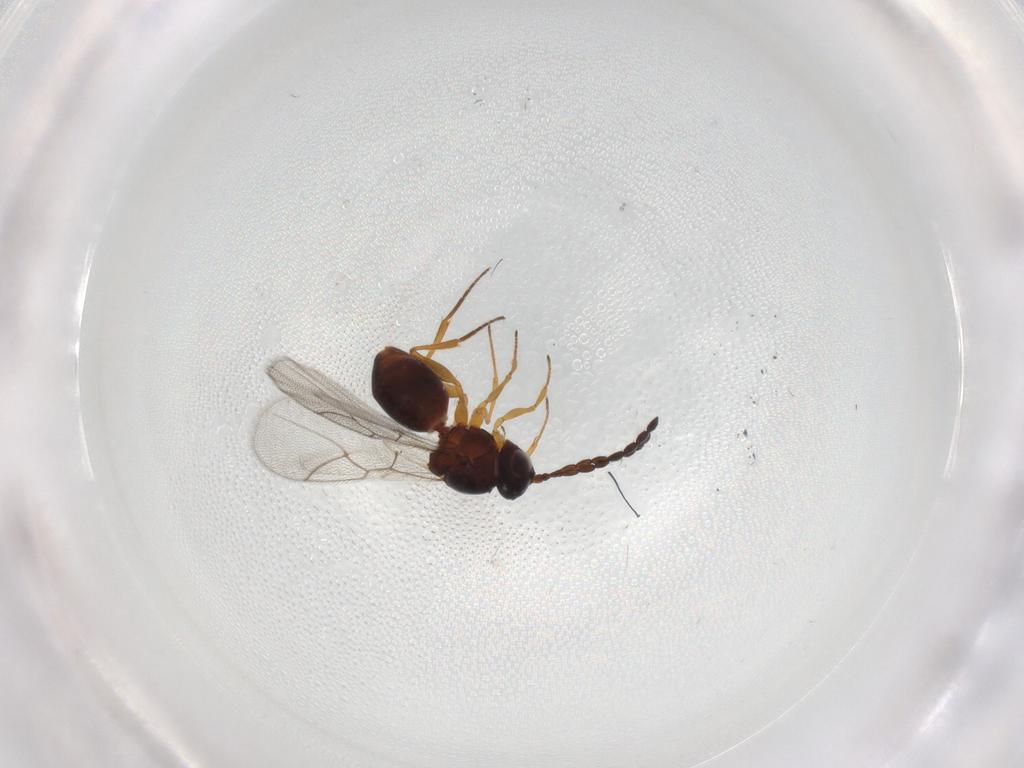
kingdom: Animalia
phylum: Arthropoda
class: Insecta
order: Hymenoptera
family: Figitidae
